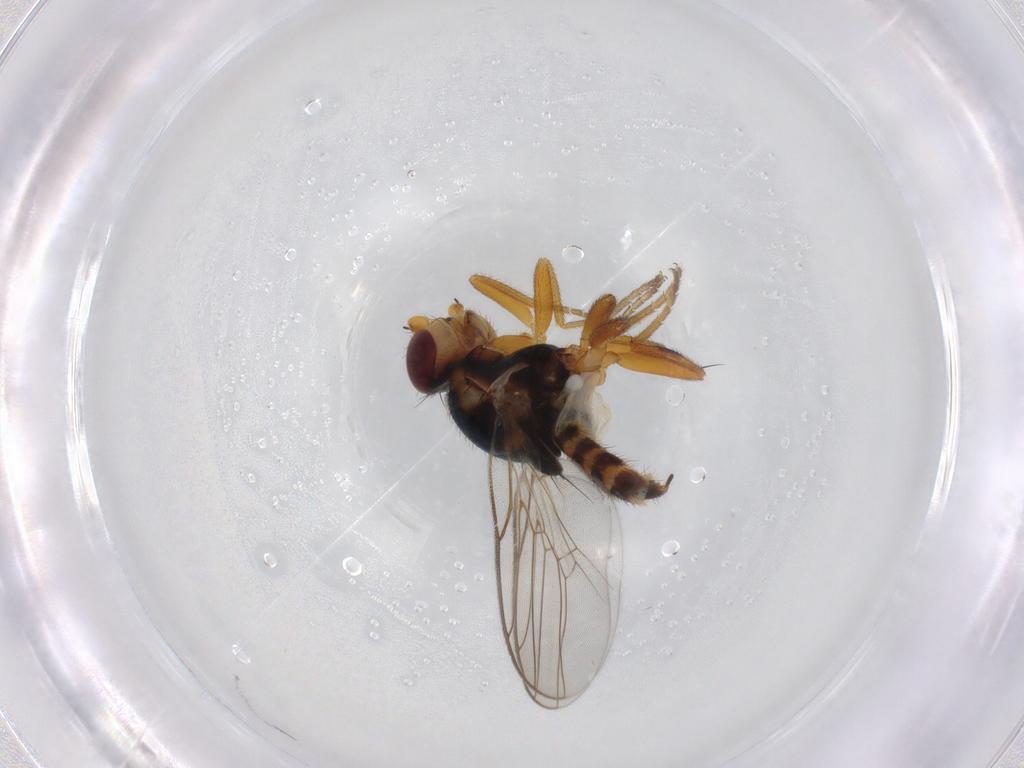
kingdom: Animalia
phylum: Arthropoda
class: Insecta
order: Diptera
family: Chloropidae
